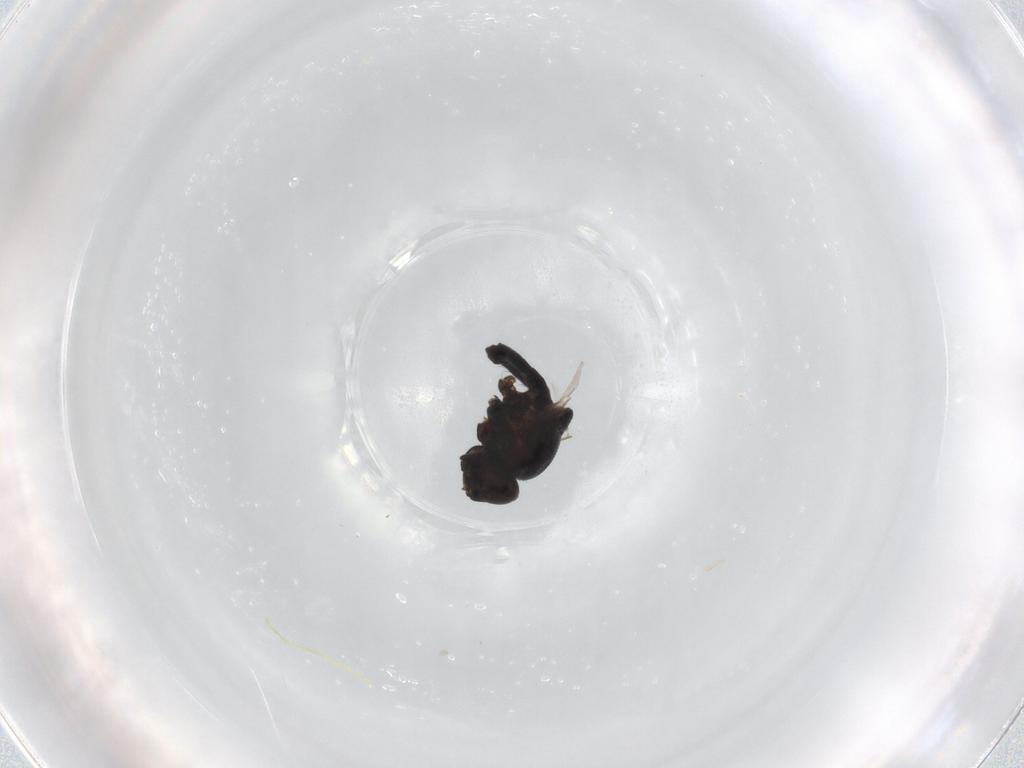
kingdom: Animalia
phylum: Arthropoda
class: Insecta
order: Diptera
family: Chloropidae
